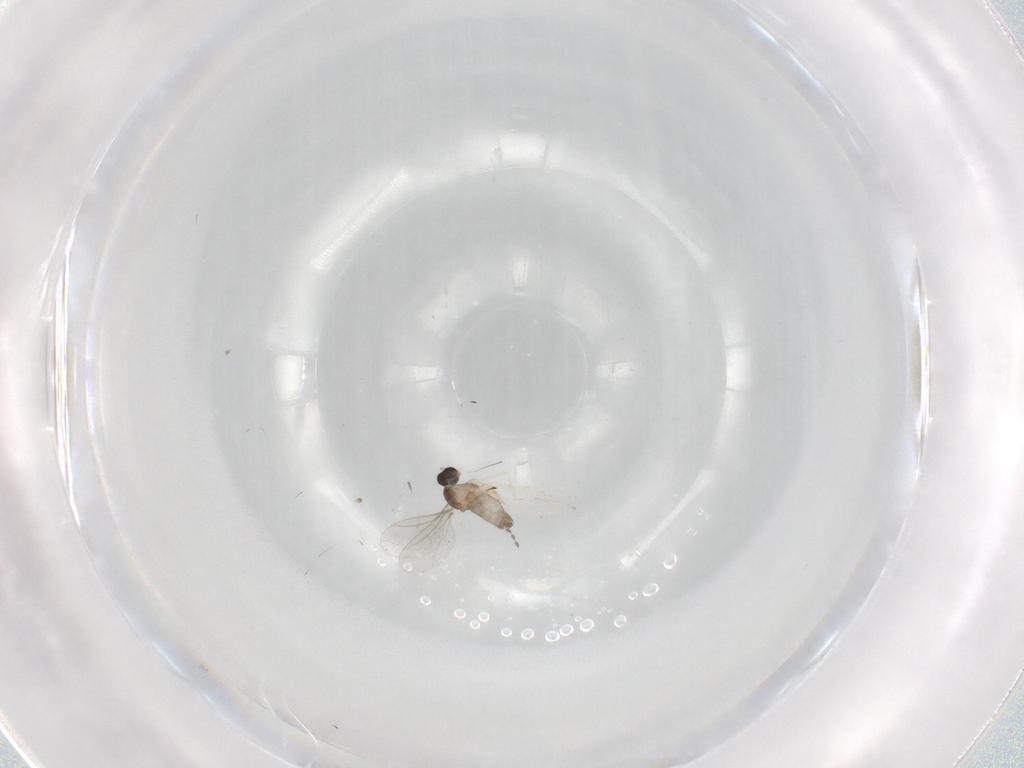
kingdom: Animalia
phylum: Arthropoda
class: Insecta
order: Diptera
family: Cecidomyiidae
